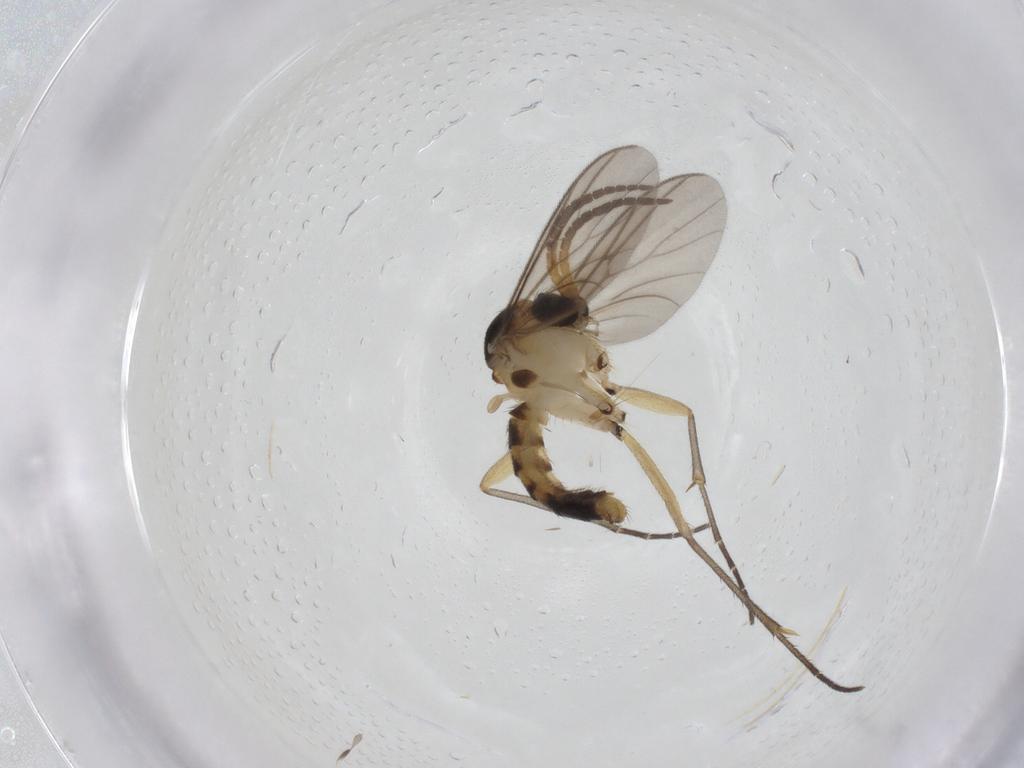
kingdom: Animalia
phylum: Arthropoda
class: Insecta
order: Diptera
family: Mycetophilidae
